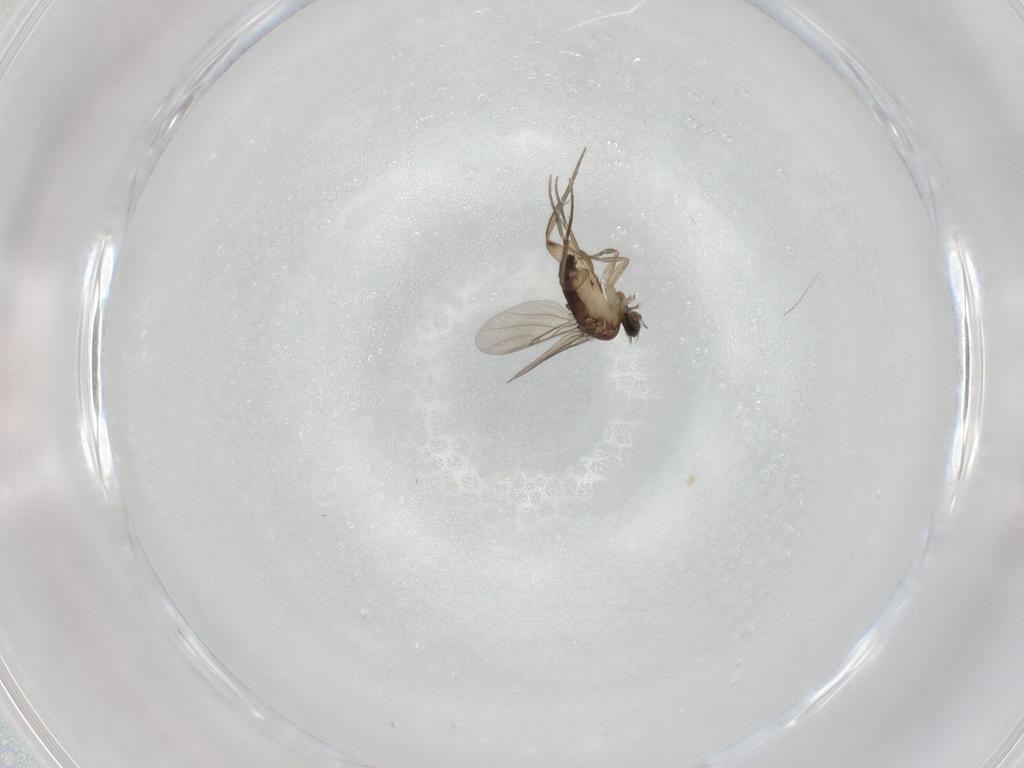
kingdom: Animalia
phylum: Arthropoda
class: Insecta
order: Diptera
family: Phoridae
